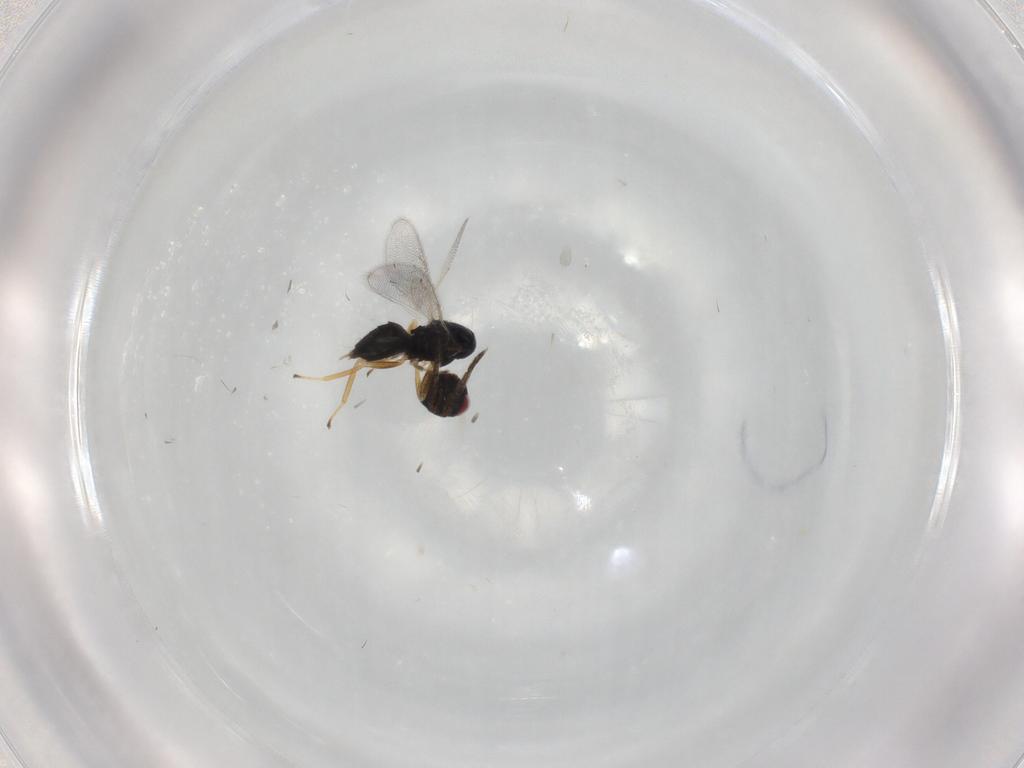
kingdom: Animalia
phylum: Arthropoda
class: Insecta
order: Hymenoptera
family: Eulophidae
